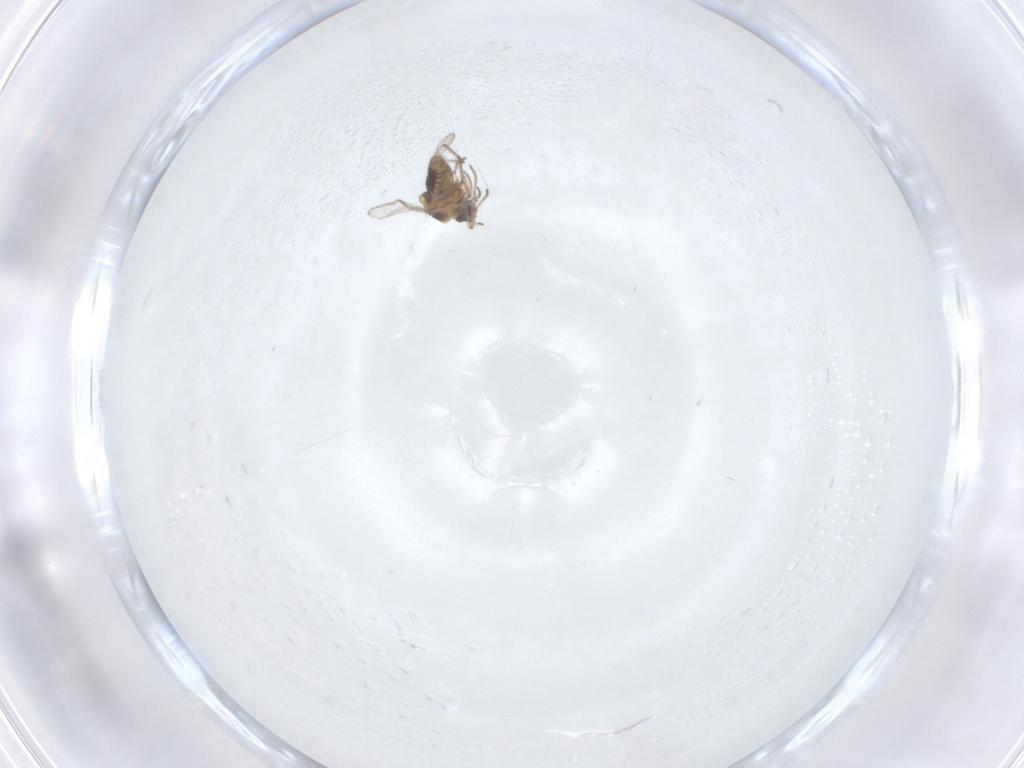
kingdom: Animalia
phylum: Arthropoda
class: Insecta
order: Diptera
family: Ceratopogonidae
